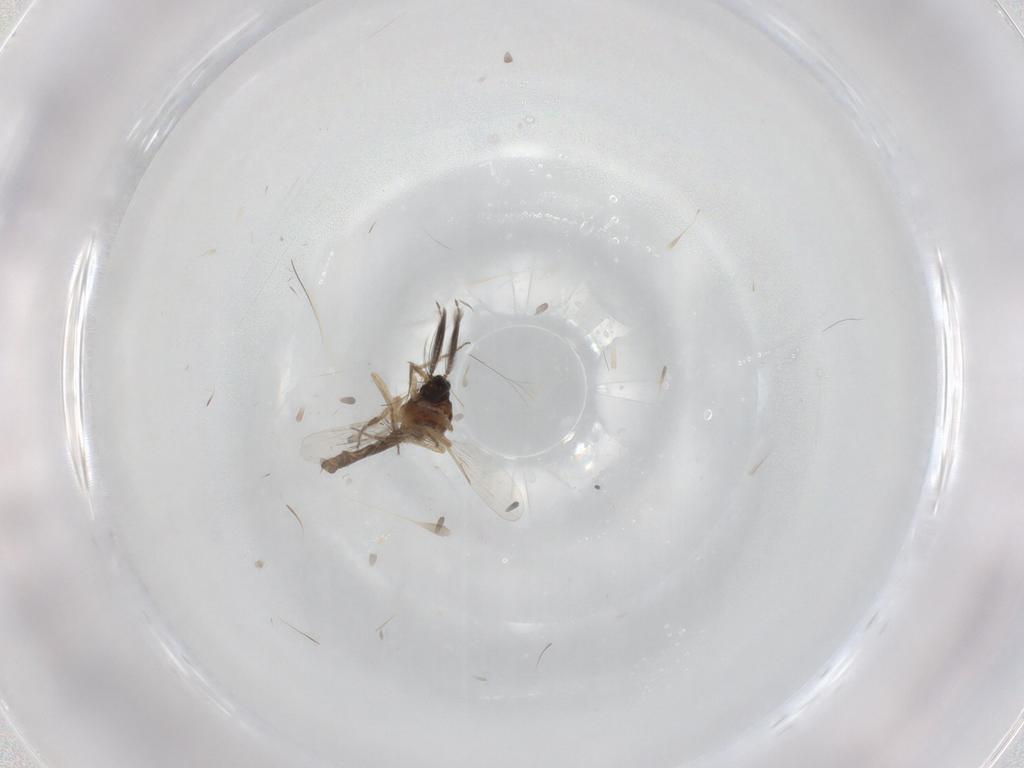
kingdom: Animalia
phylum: Arthropoda
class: Insecta
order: Diptera
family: Ceratopogonidae
